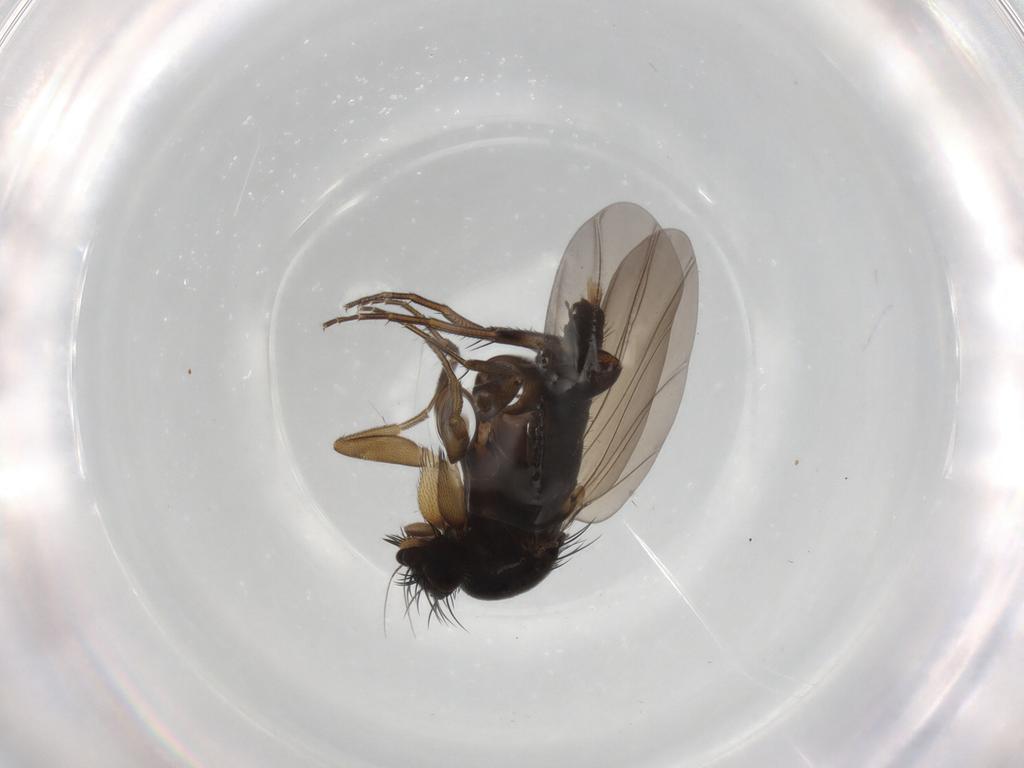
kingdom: Animalia
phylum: Arthropoda
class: Insecta
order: Diptera
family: Phoridae
